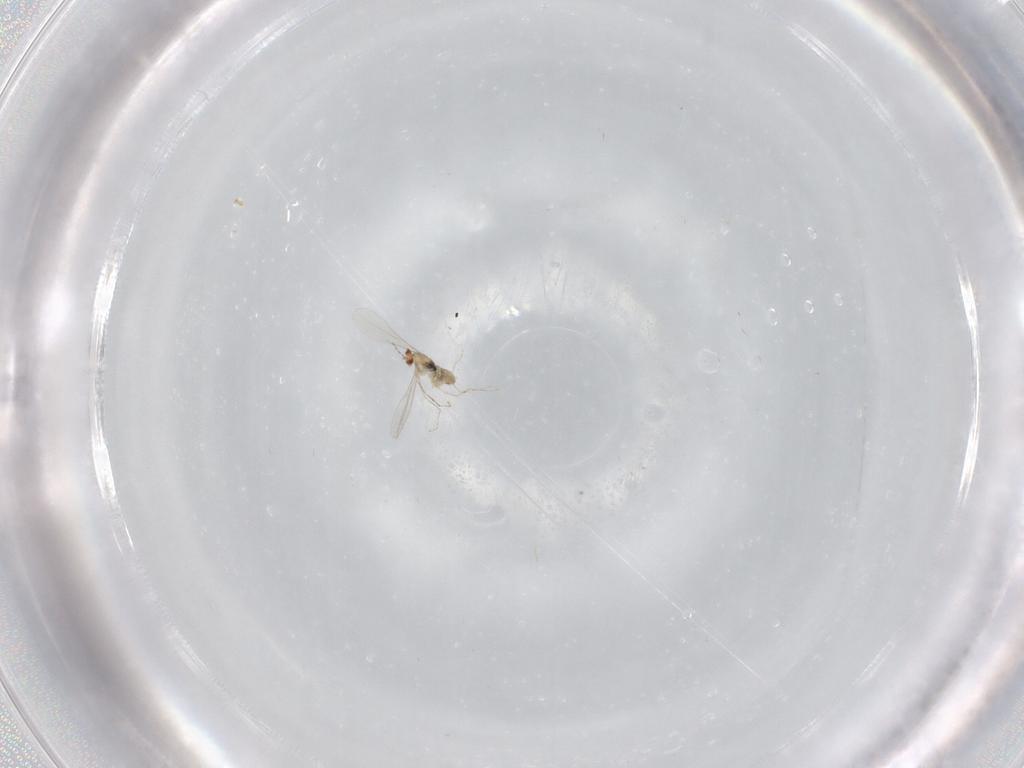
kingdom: Animalia
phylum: Arthropoda
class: Insecta
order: Diptera
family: Cecidomyiidae
